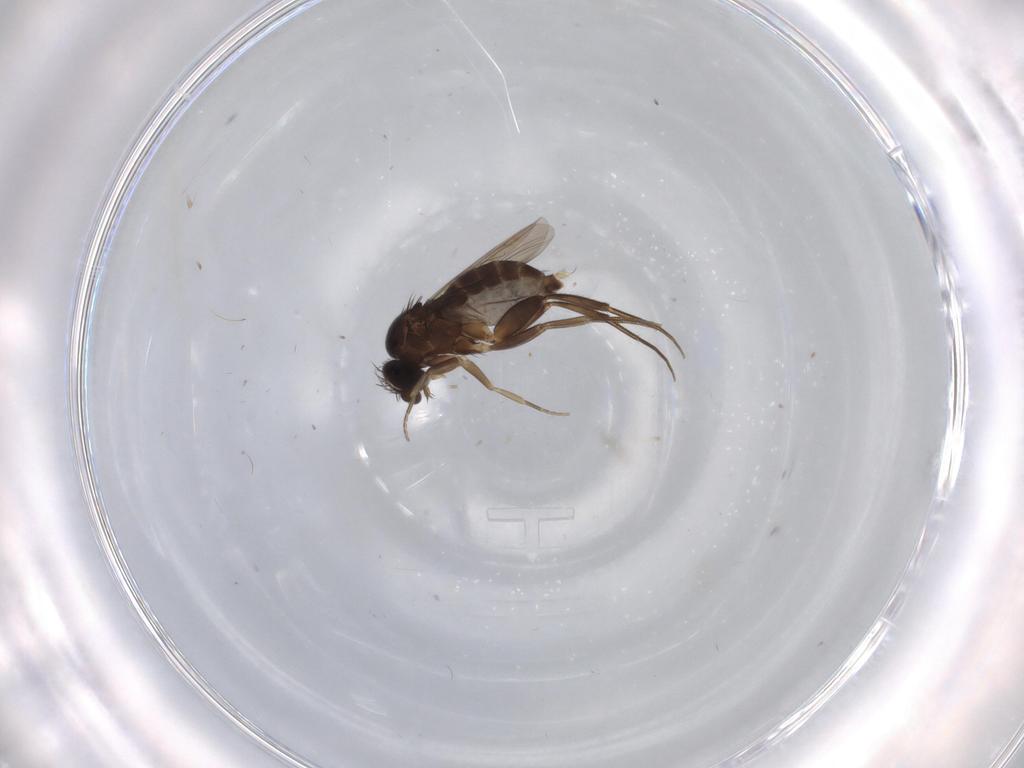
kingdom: Animalia
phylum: Arthropoda
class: Insecta
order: Diptera
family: Phoridae
